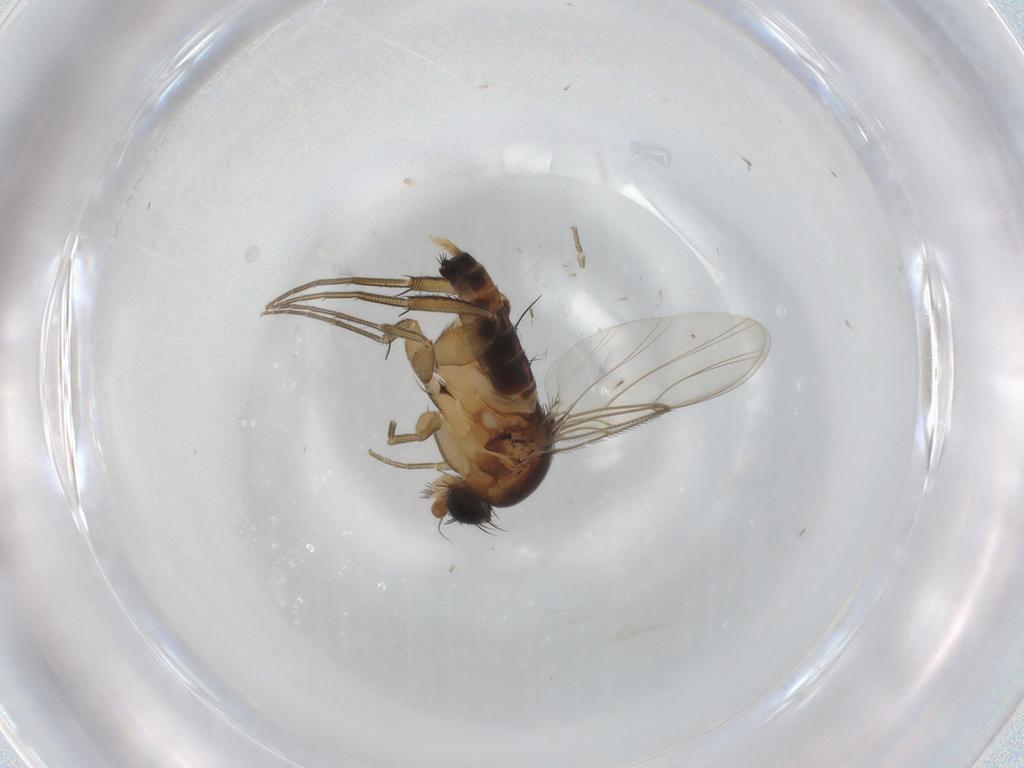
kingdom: Animalia
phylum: Arthropoda
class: Insecta
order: Diptera
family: Phoridae
